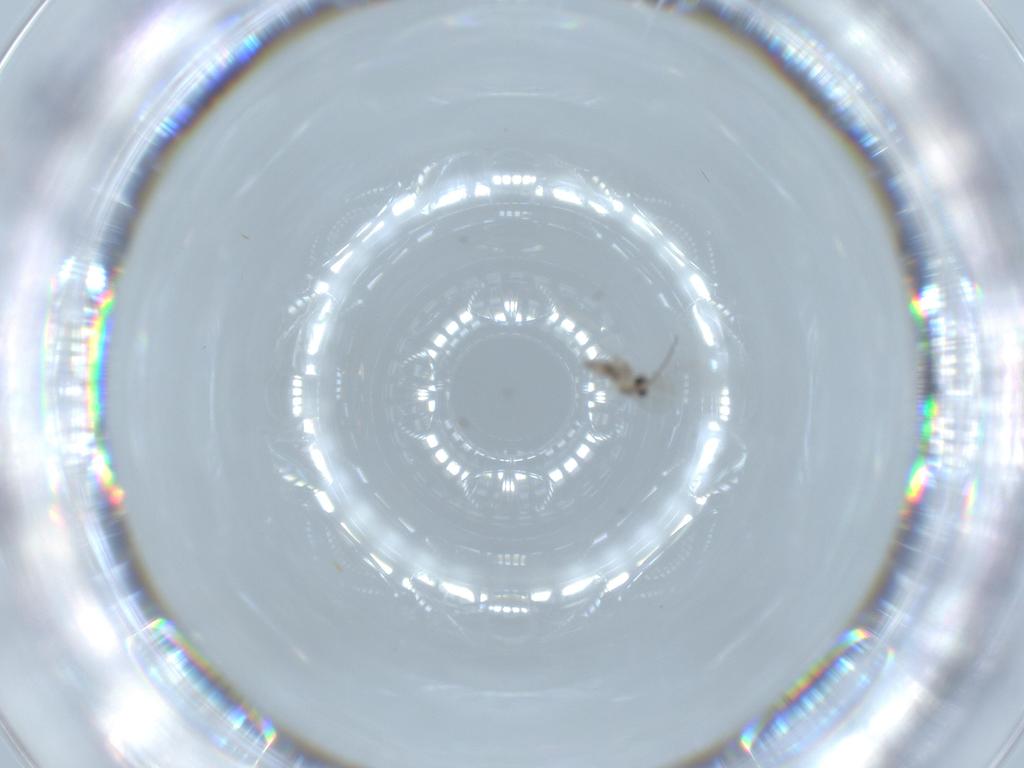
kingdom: Animalia
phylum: Arthropoda
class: Insecta
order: Diptera
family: Cecidomyiidae
